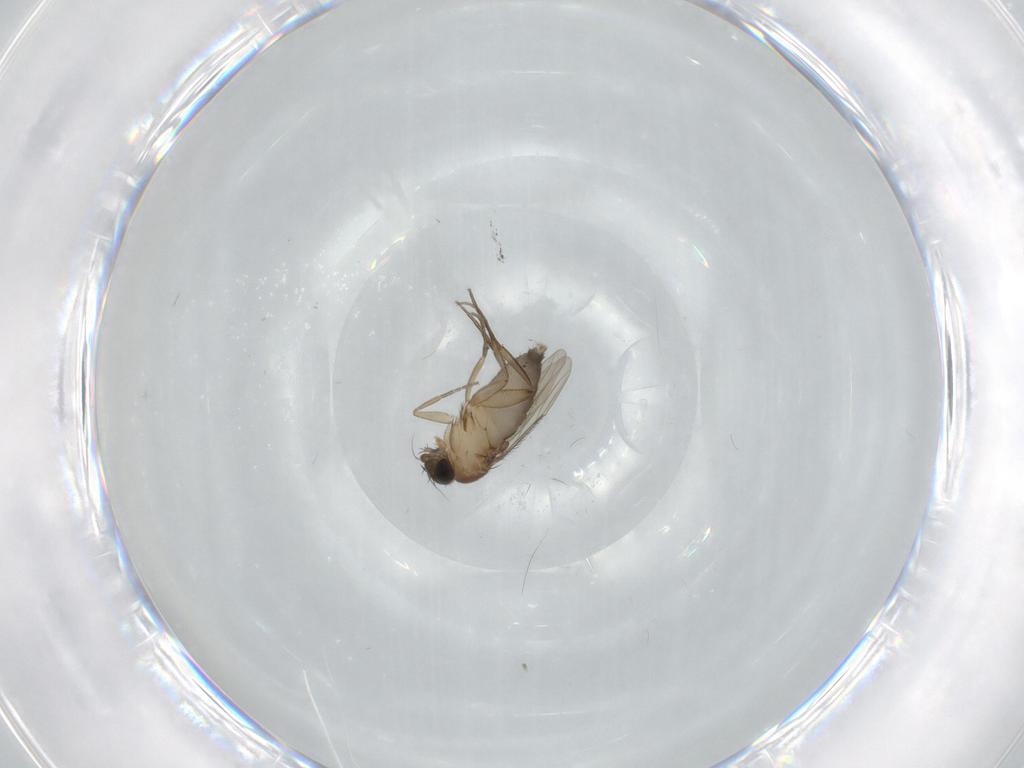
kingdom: Animalia
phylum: Arthropoda
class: Insecta
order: Diptera
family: Phoridae
